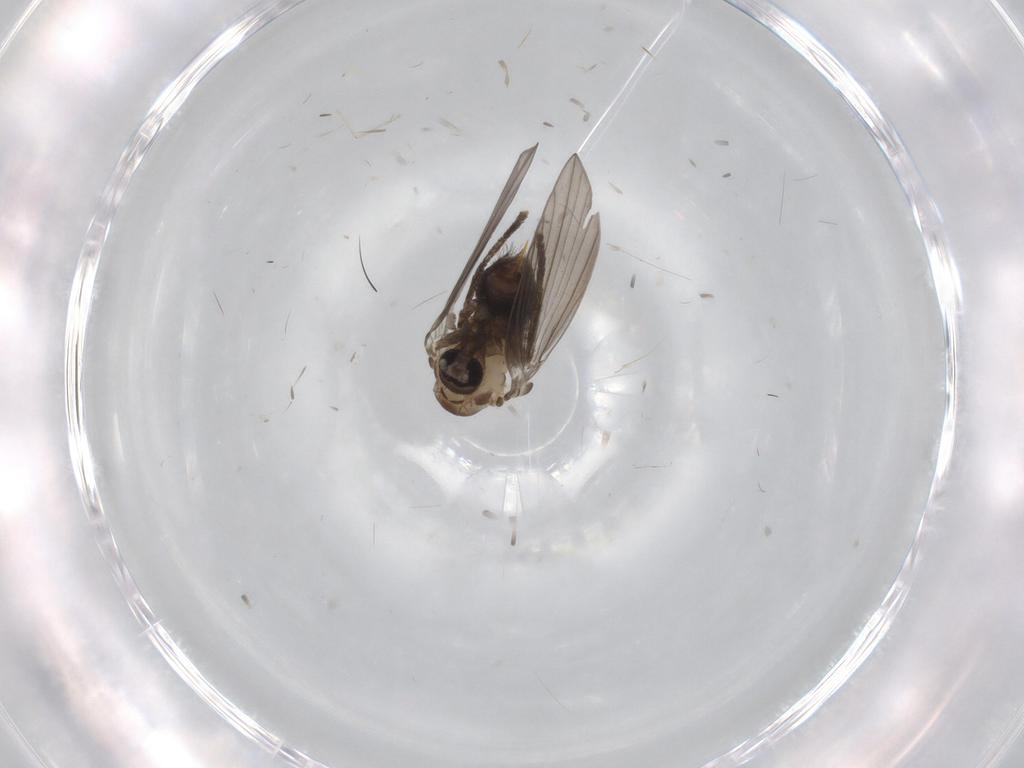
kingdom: Animalia
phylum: Arthropoda
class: Insecta
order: Diptera
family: Psychodidae
